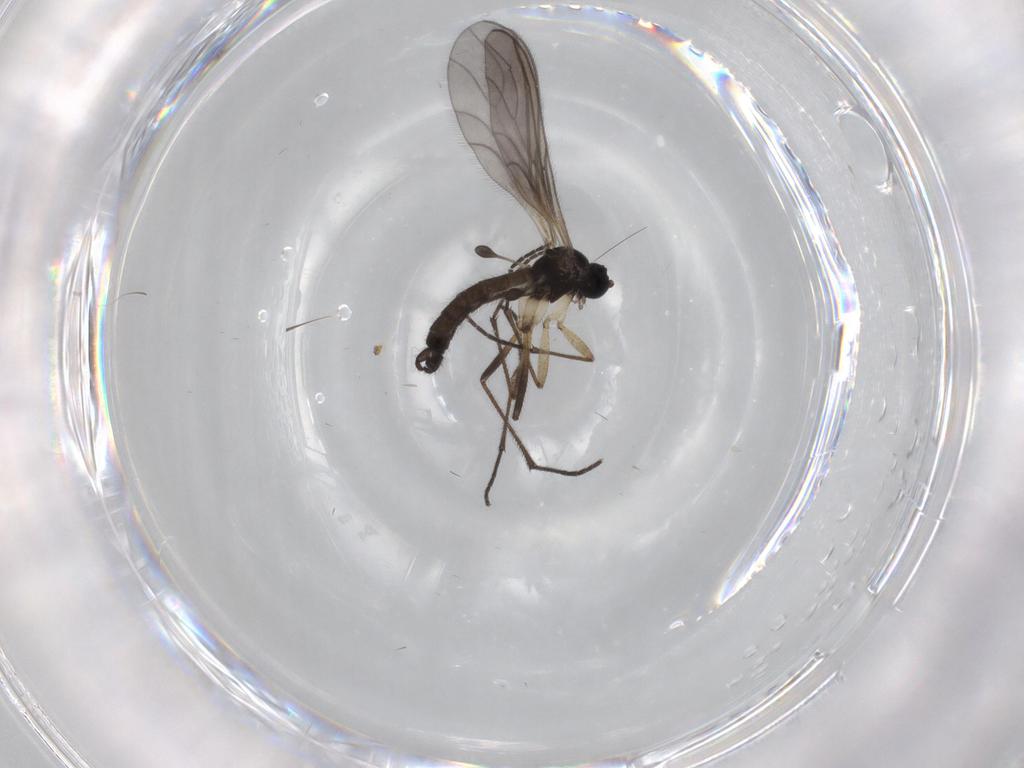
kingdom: Animalia
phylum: Arthropoda
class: Insecta
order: Diptera
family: Sciaridae
